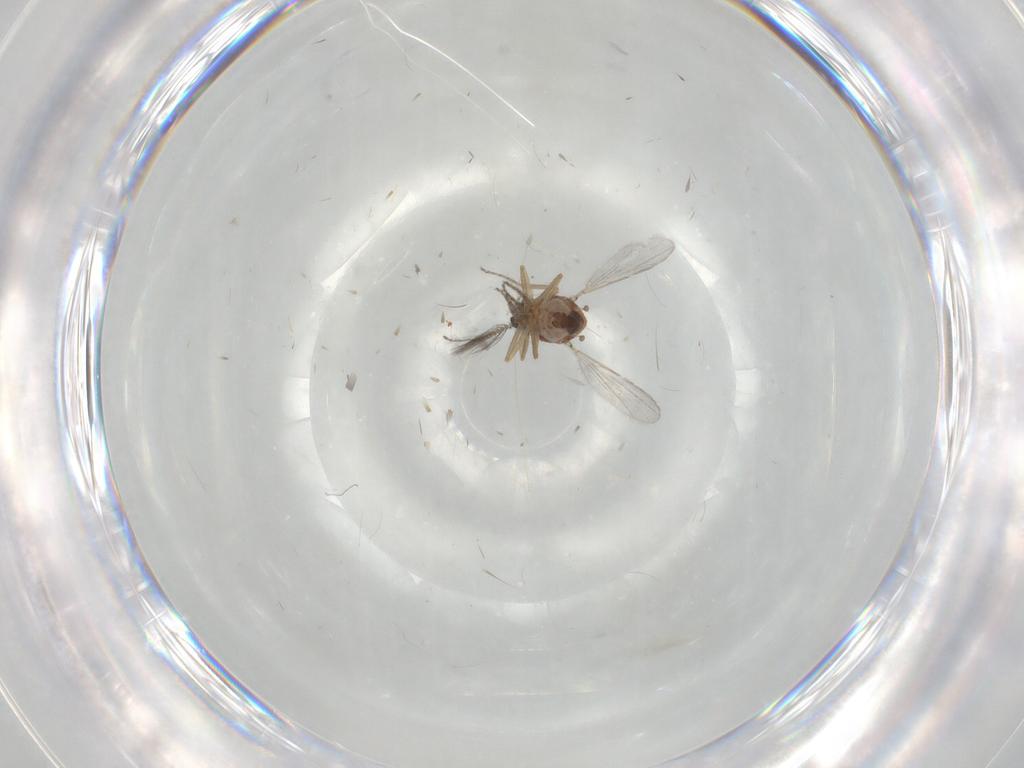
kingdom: Animalia
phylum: Arthropoda
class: Insecta
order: Diptera
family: Ceratopogonidae
